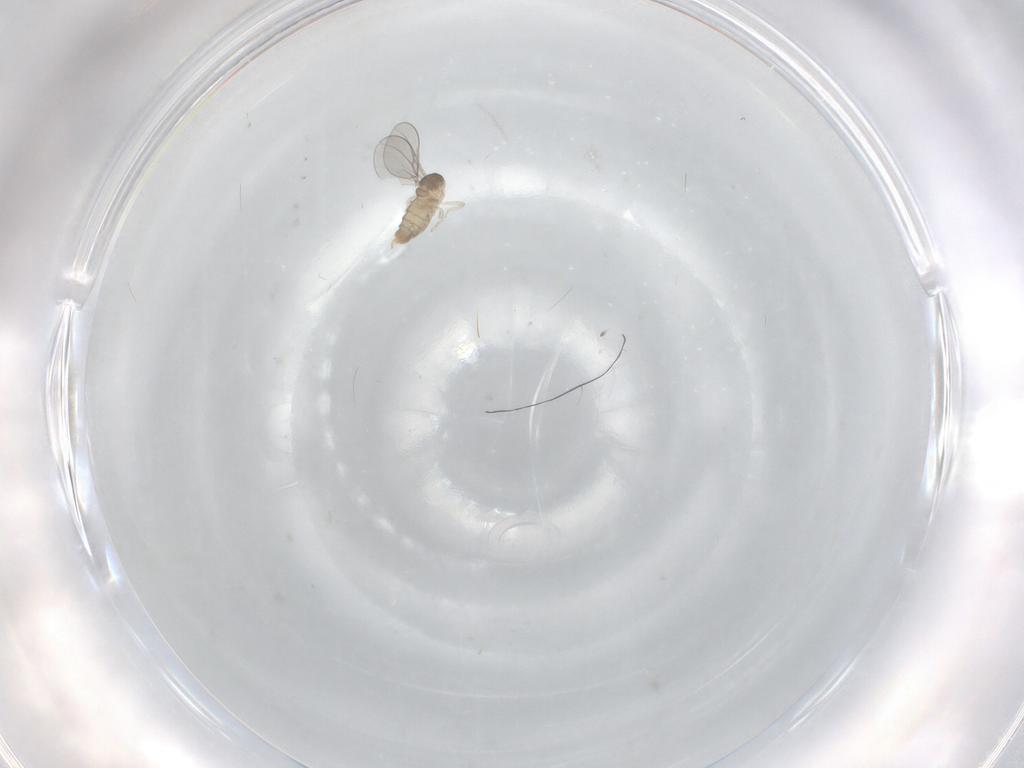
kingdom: Animalia
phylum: Arthropoda
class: Insecta
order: Diptera
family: Cecidomyiidae
